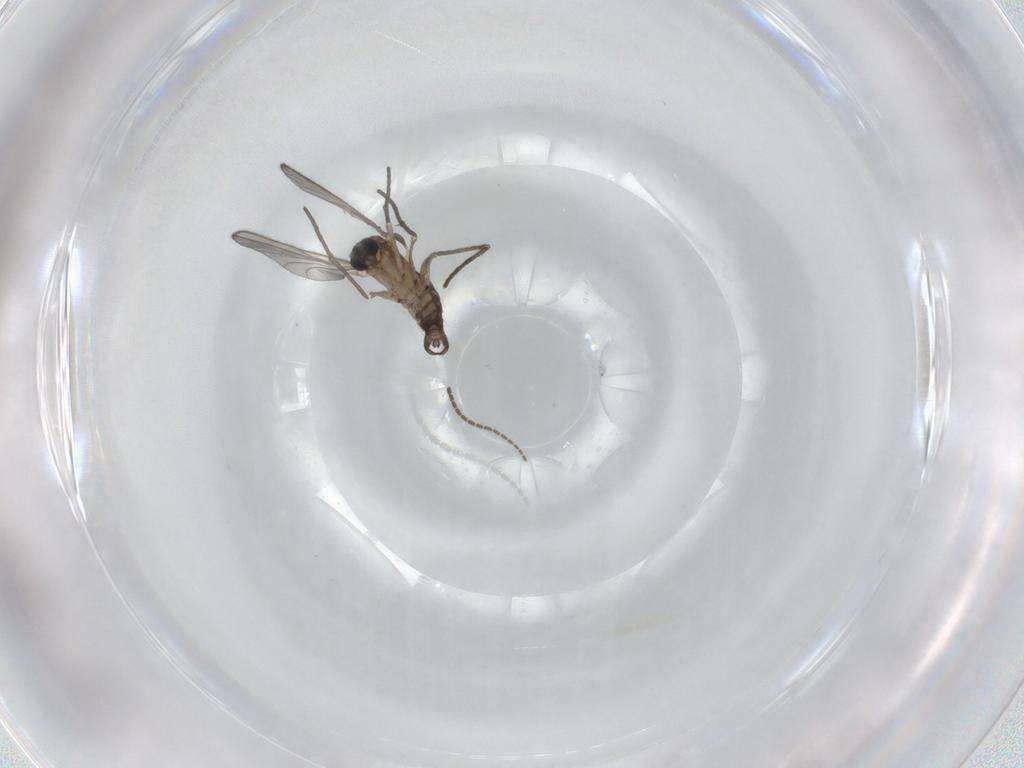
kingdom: Animalia
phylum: Arthropoda
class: Insecta
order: Diptera
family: Sciaridae
